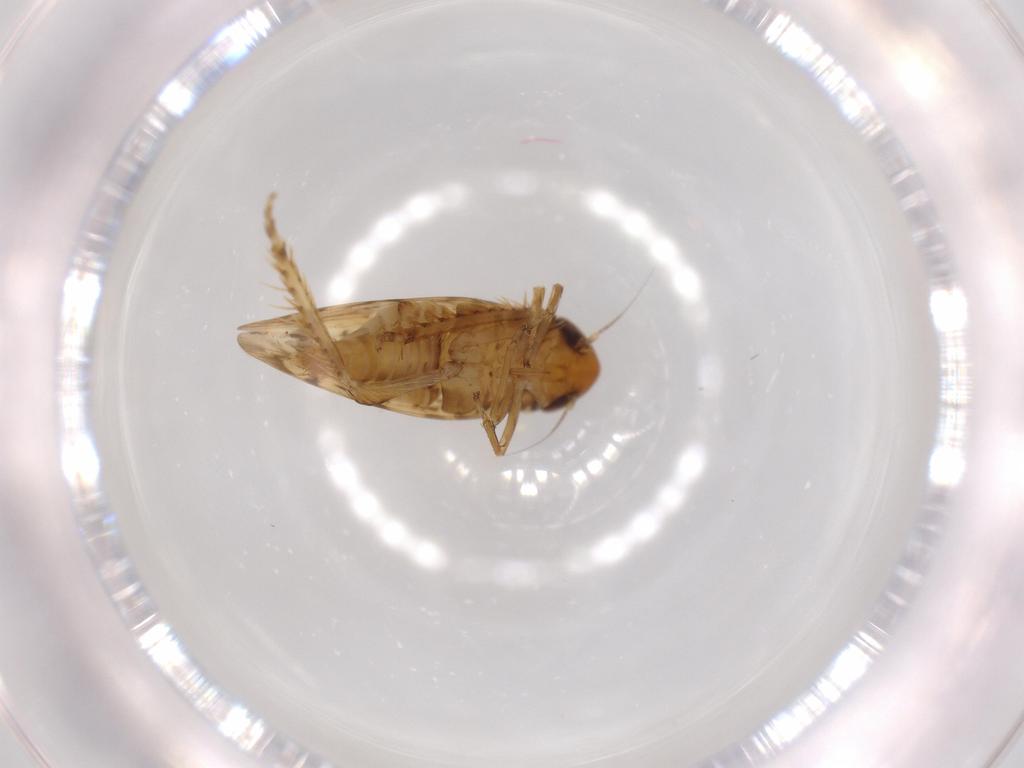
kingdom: Animalia
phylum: Arthropoda
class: Insecta
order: Hemiptera
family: Cicadellidae
